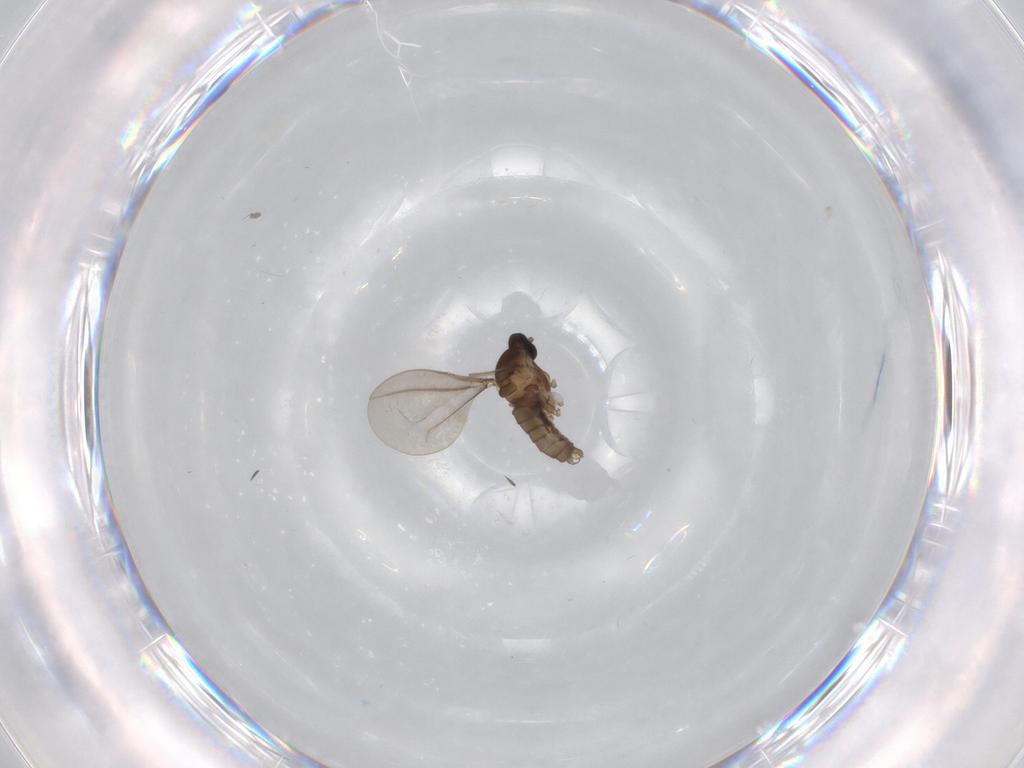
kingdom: Animalia
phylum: Arthropoda
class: Insecta
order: Diptera
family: Cecidomyiidae
